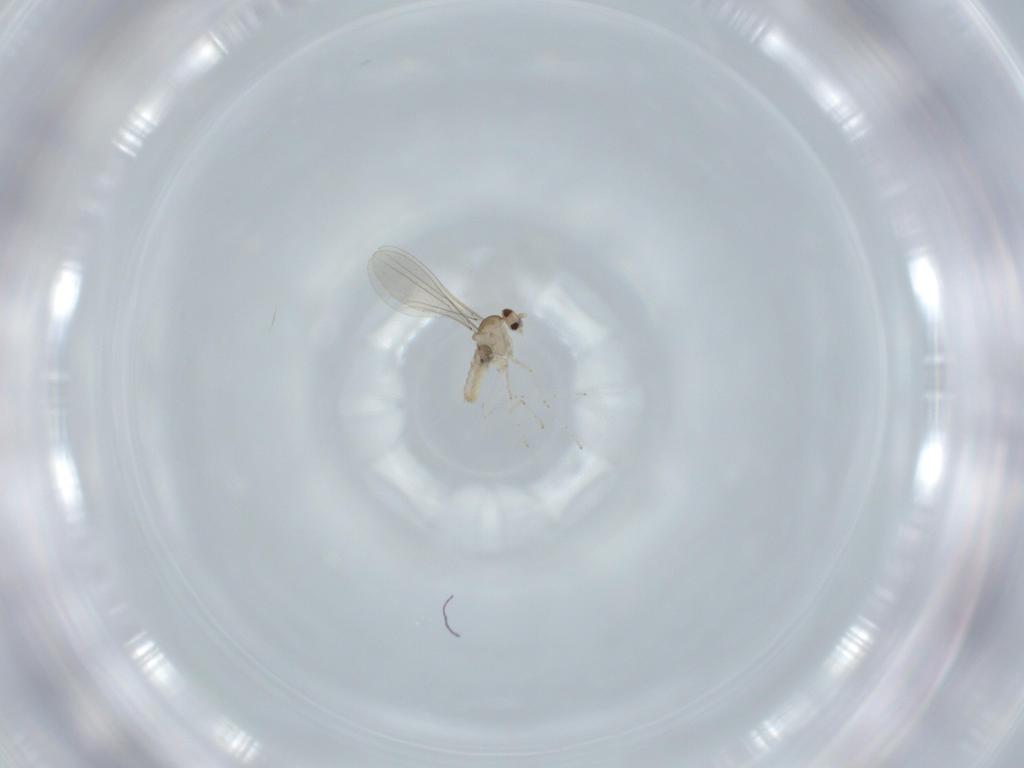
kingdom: Animalia
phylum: Arthropoda
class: Insecta
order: Diptera
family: Cecidomyiidae
